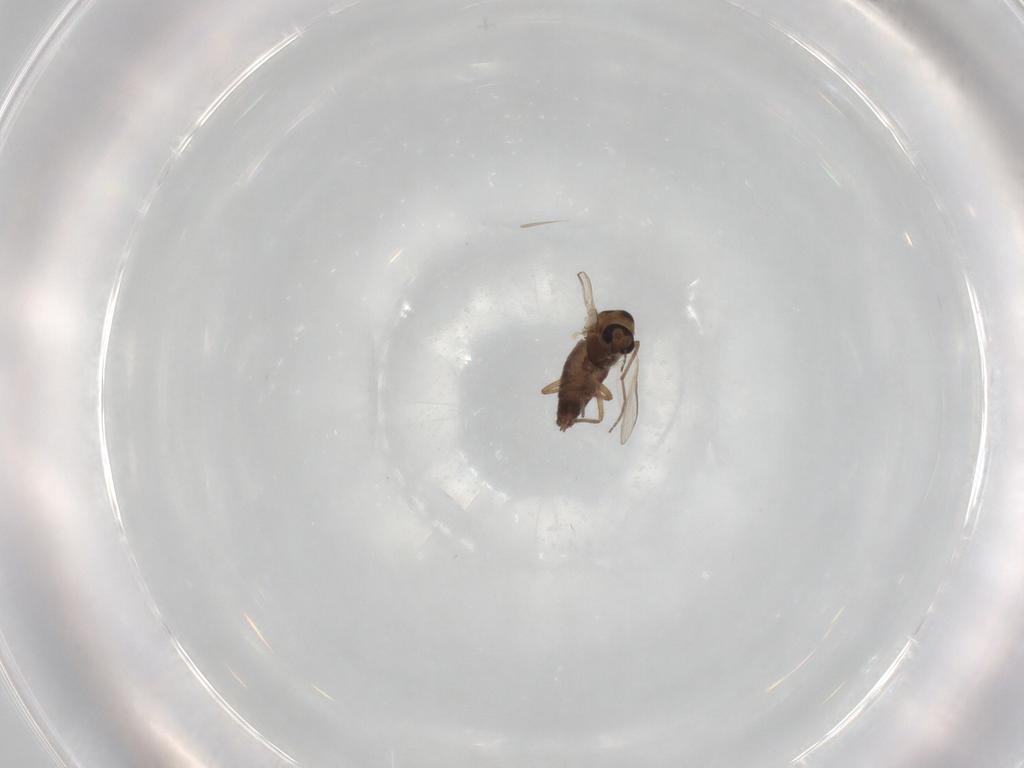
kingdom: Animalia
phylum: Arthropoda
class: Insecta
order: Diptera
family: Chironomidae
